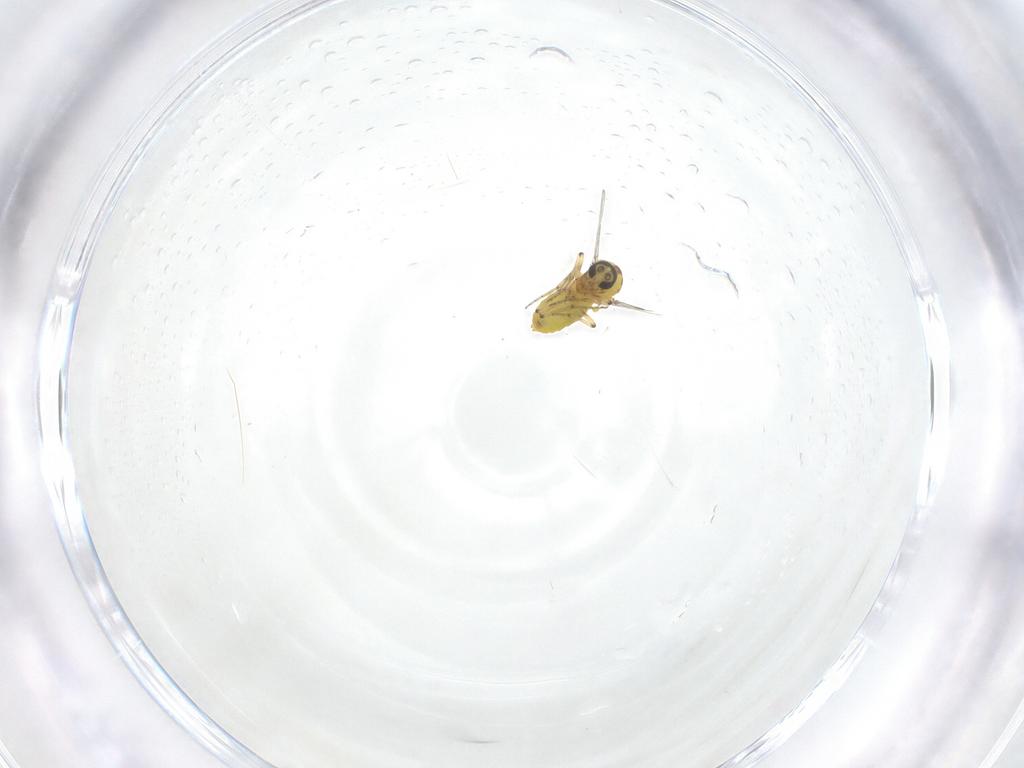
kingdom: Animalia
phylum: Arthropoda
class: Insecta
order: Diptera
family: Ceratopogonidae
